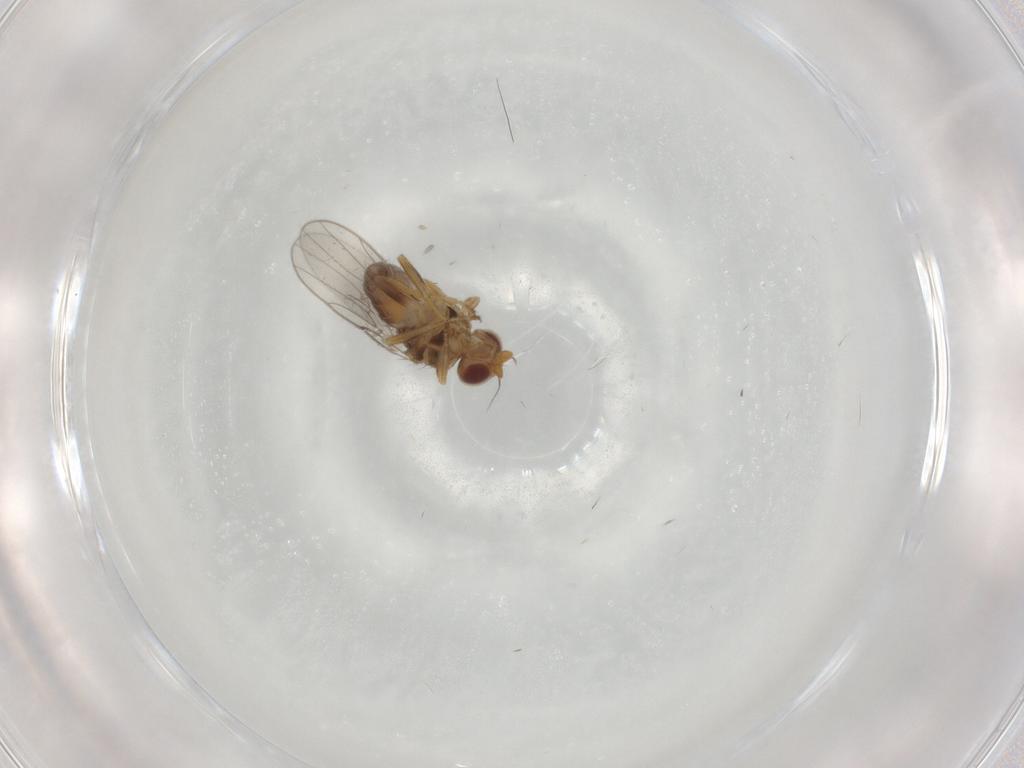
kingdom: Animalia
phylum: Arthropoda
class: Insecta
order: Diptera
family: Chloropidae
